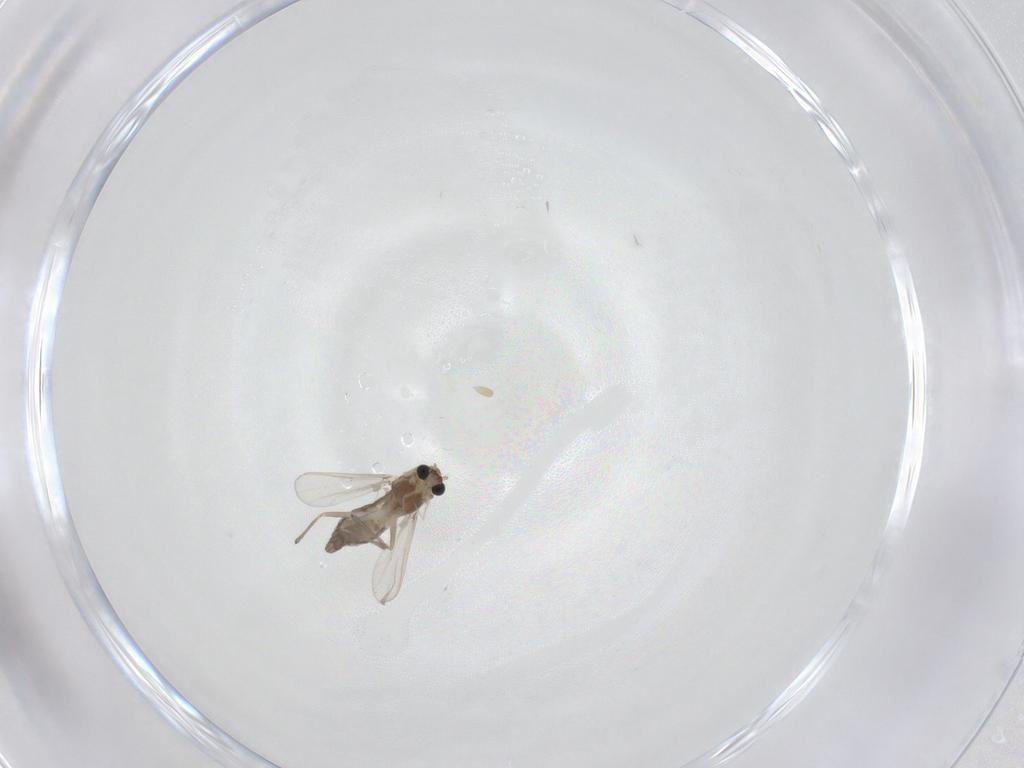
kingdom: Animalia
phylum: Arthropoda
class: Insecta
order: Diptera
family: Chironomidae
